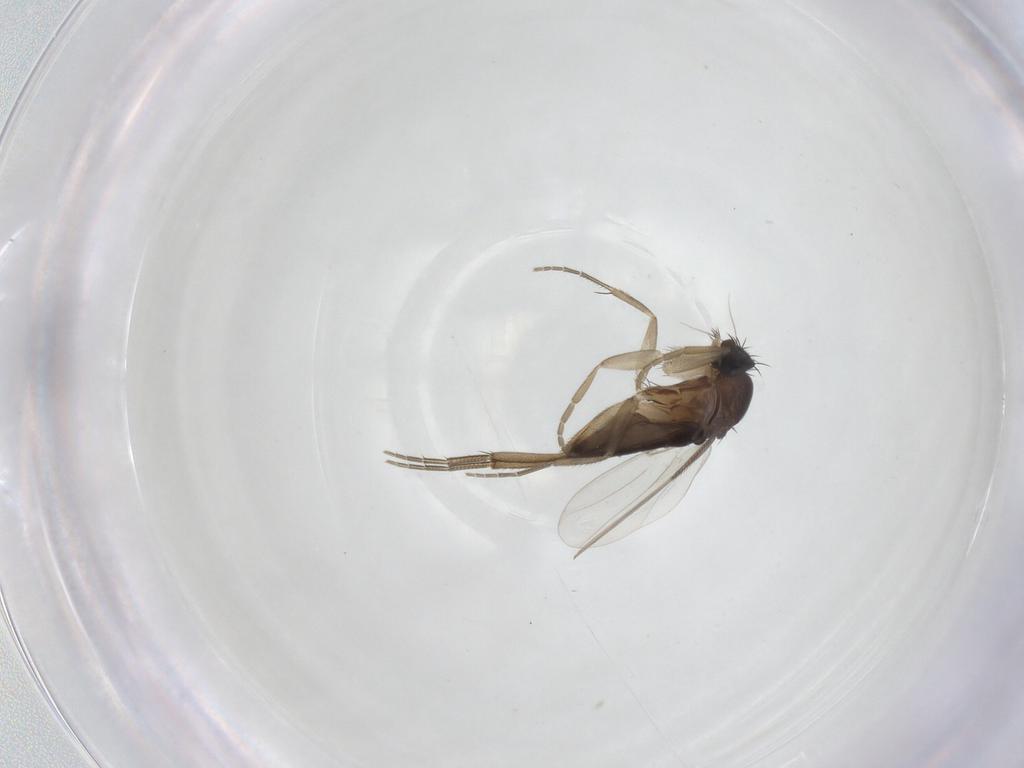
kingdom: Animalia
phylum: Arthropoda
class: Insecta
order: Diptera
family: Phoridae
